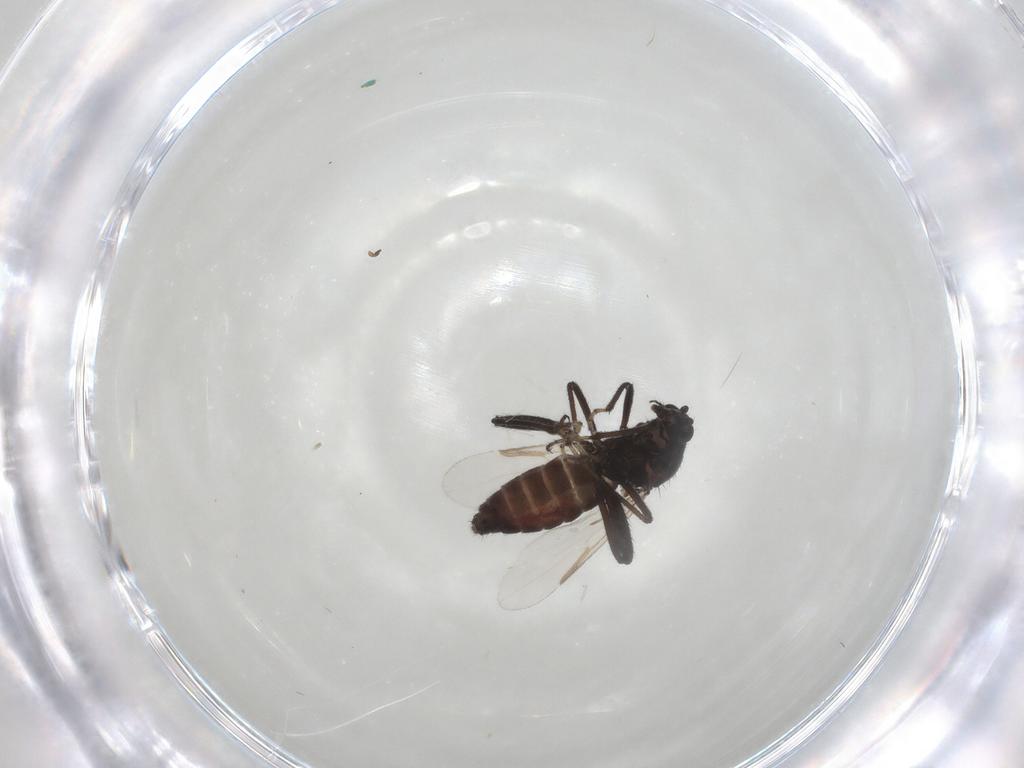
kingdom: Animalia
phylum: Arthropoda
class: Insecta
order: Diptera
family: Ceratopogonidae
